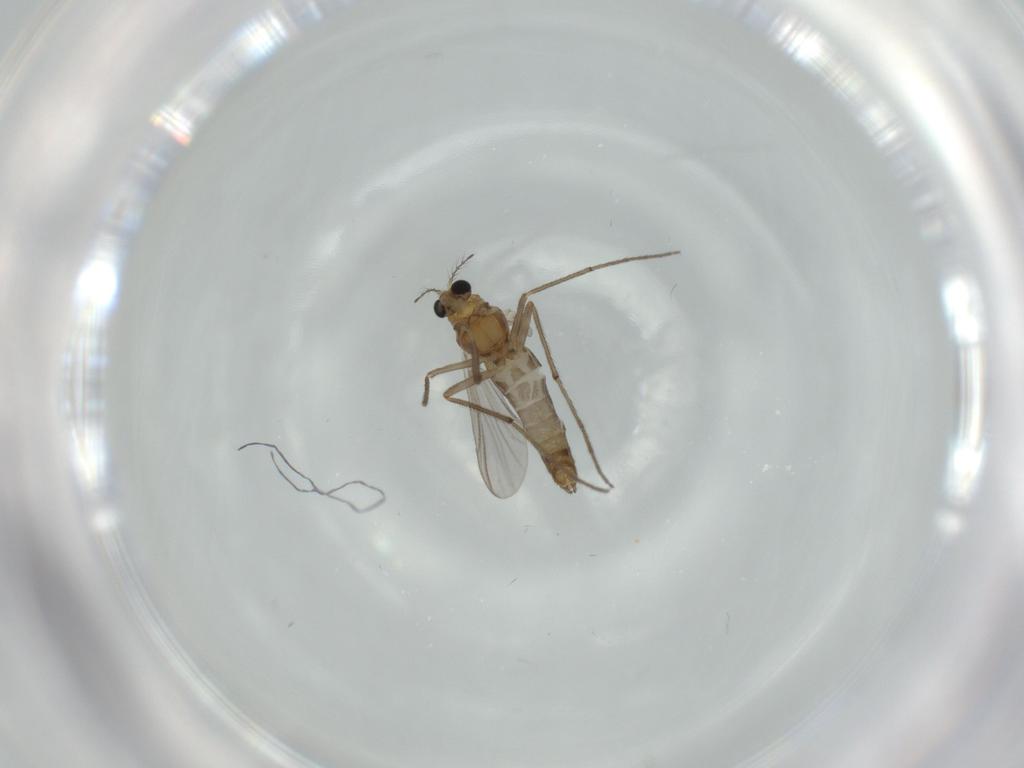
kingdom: Animalia
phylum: Arthropoda
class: Insecta
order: Diptera
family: Chironomidae
